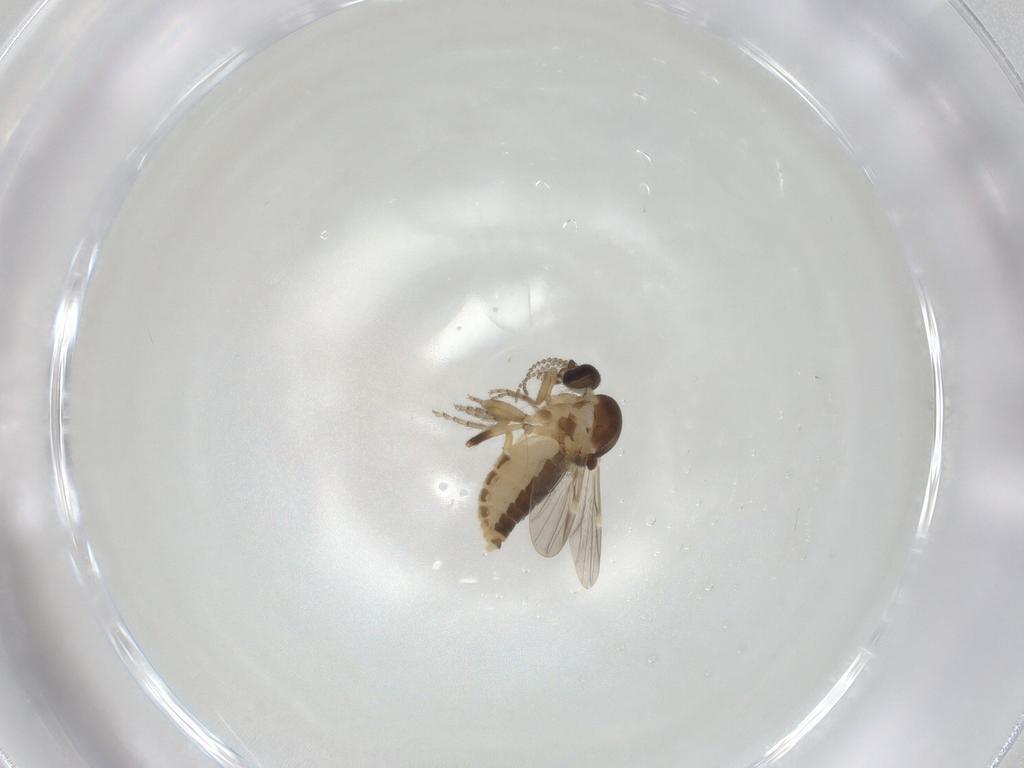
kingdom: Animalia
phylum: Arthropoda
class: Insecta
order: Diptera
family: Ceratopogonidae
